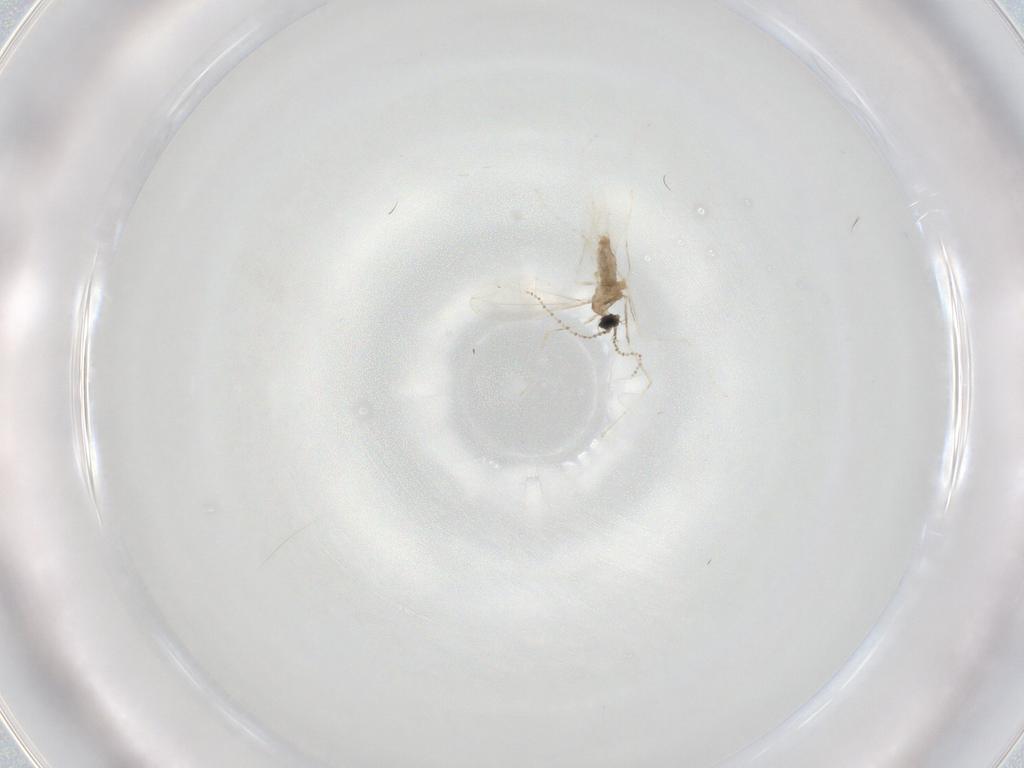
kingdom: Animalia
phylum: Arthropoda
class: Insecta
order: Diptera
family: Cecidomyiidae
